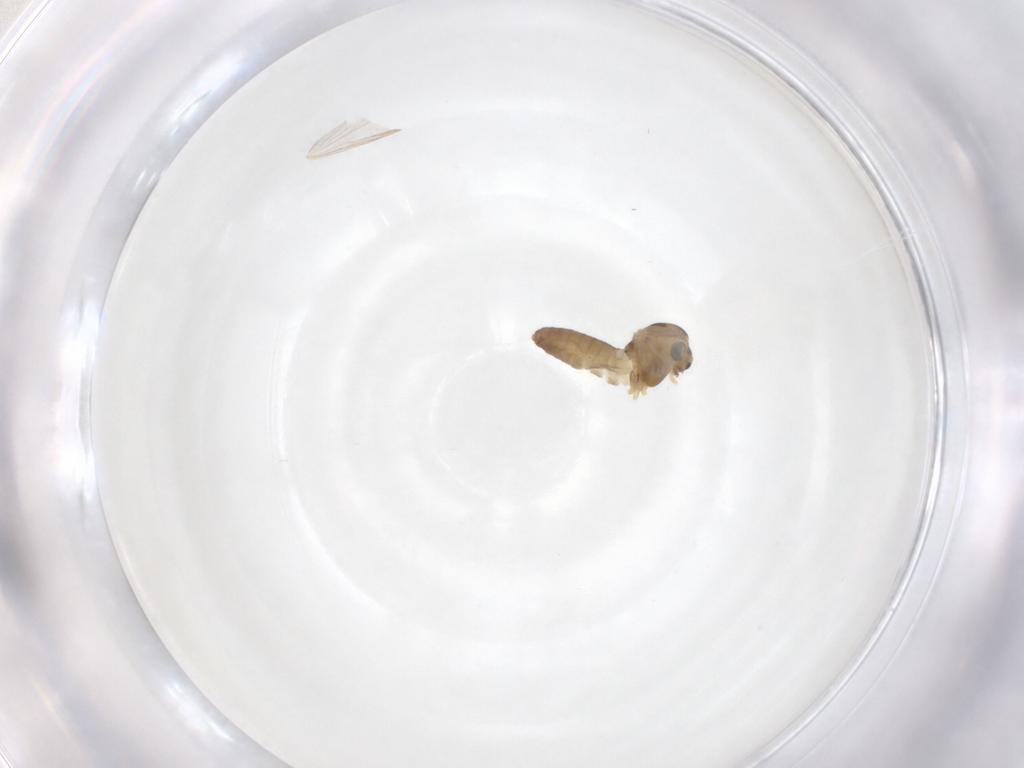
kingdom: Animalia
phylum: Arthropoda
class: Insecta
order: Diptera
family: Chironomidae
